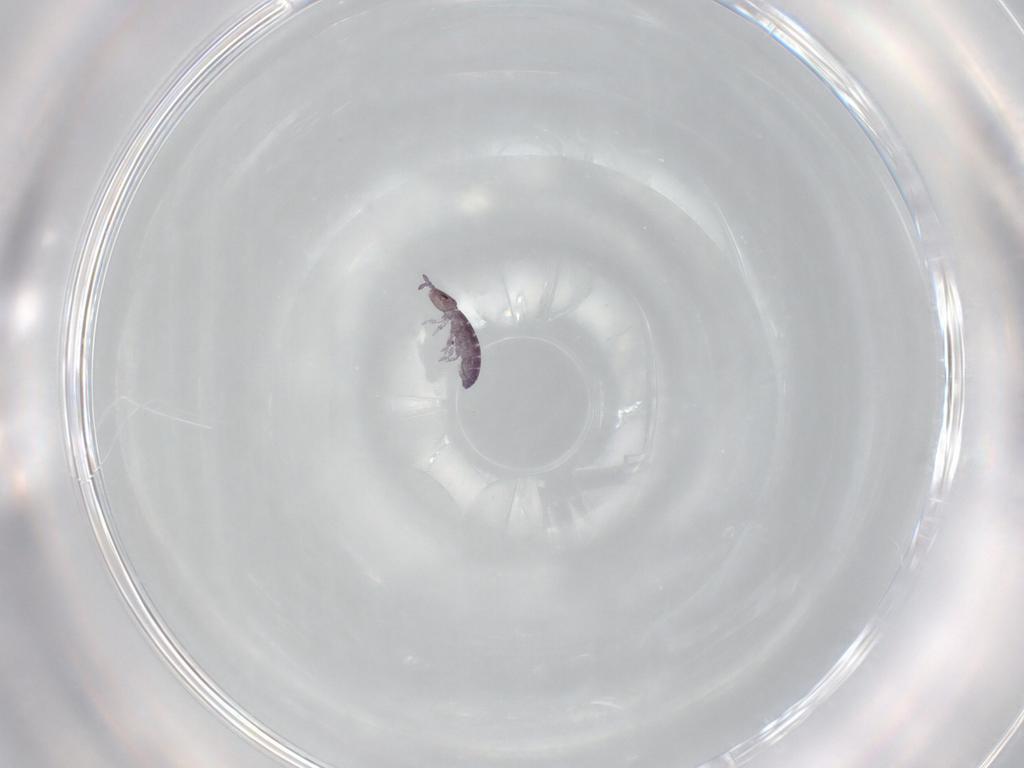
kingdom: Animalia
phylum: Arthropoda
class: Collembola
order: Entomobryomorpha
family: Isotomidae
